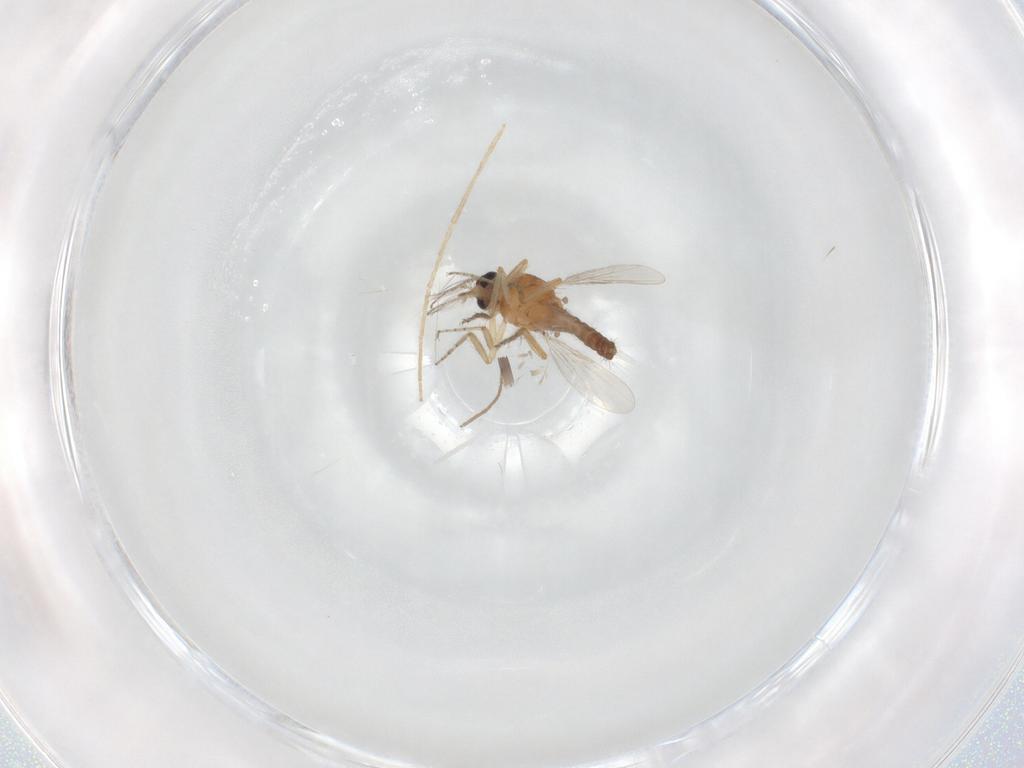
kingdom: Animalia
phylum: Arthropoda
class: Insecta
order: Diptera
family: Ceratopogonidae
